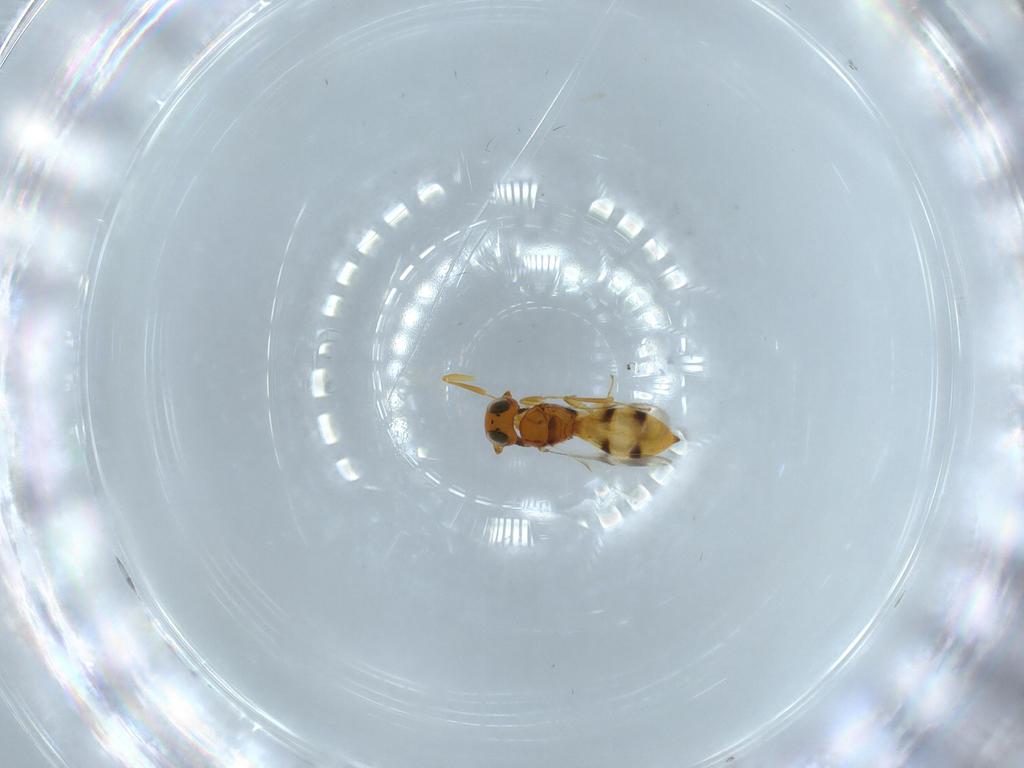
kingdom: Animalia
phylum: Arthropoda
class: Insecta
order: Hymenoptera
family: Scelionidae
